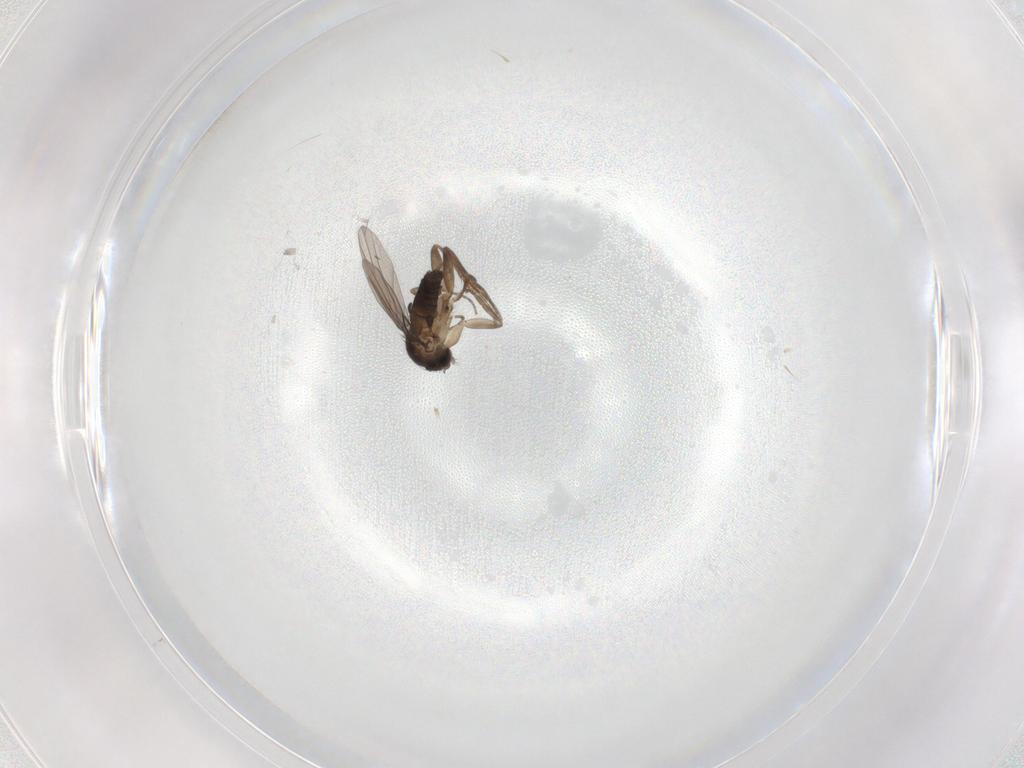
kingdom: Animalia
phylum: Arthropoda
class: Insecta
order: Diptera
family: Phoridae
